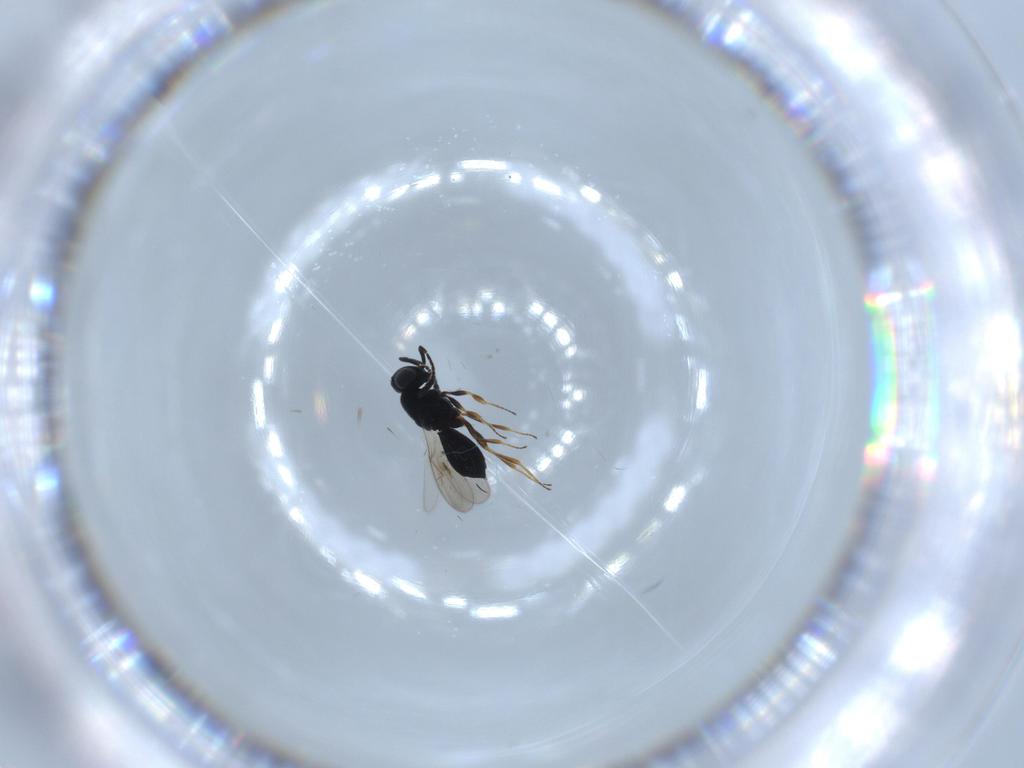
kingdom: Animalia
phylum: Arthropoda
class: Insecta
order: Hymenoptera
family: Scelionidae
